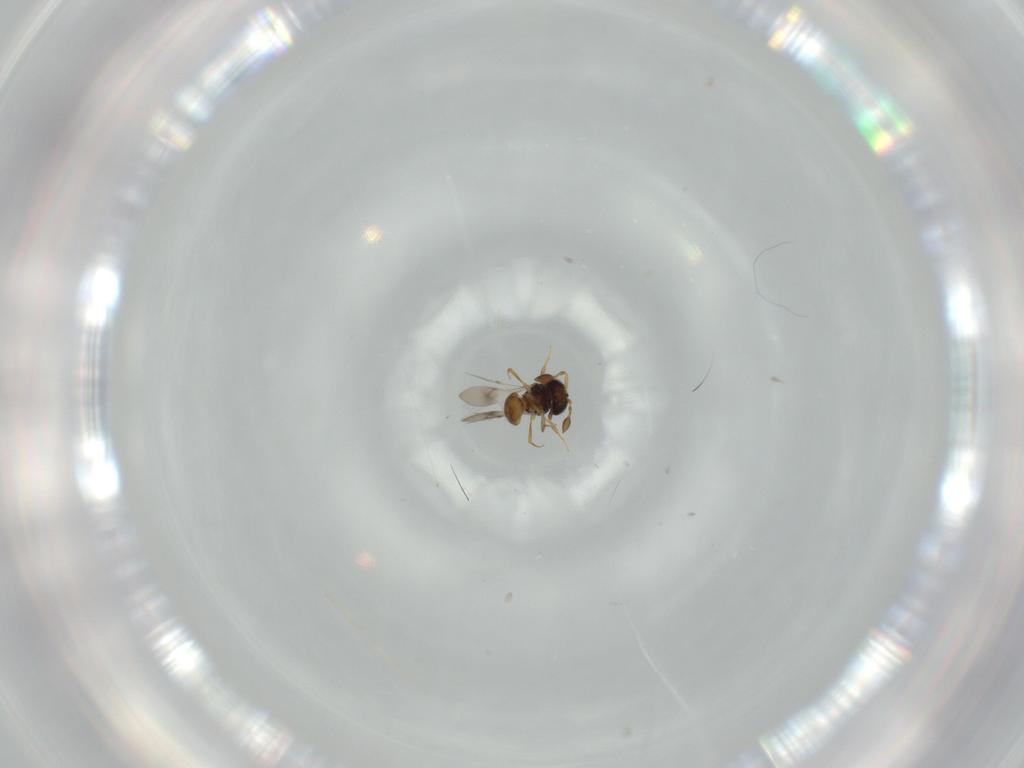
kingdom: Animalia
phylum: Arthropoda
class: Insecta
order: Hymenoptera
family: Scelionidae
